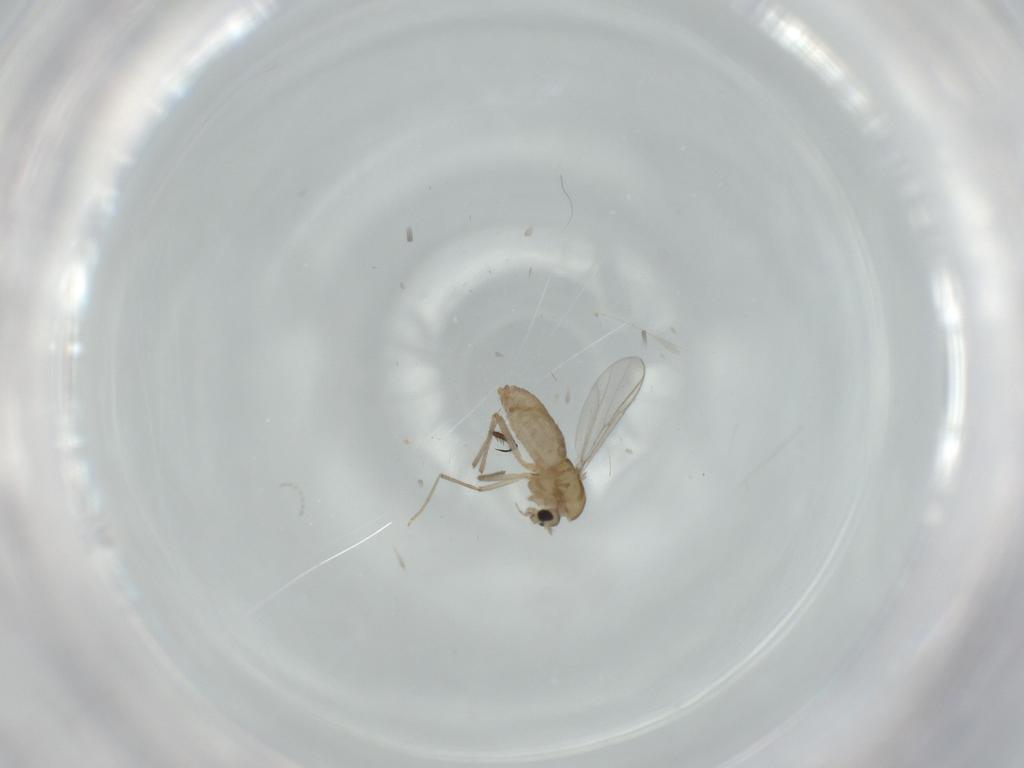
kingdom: Animalia
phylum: Arthropoda
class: Insecta
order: Diptera
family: Chironomidae
